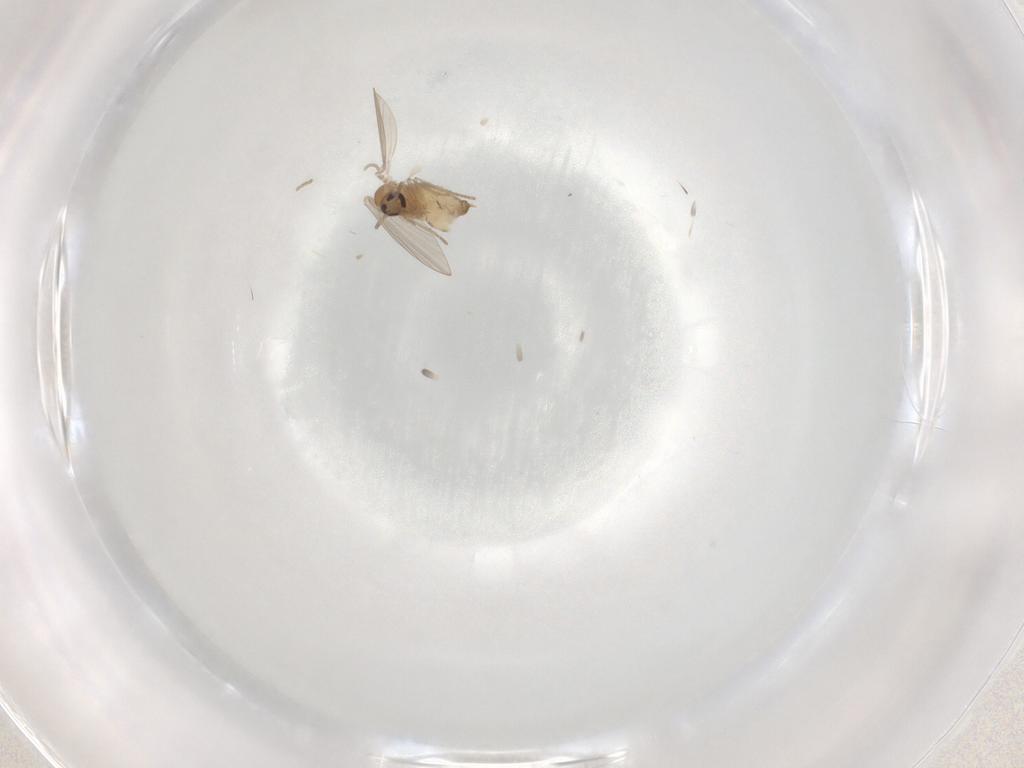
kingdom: Animalia
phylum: Arthropoda
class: Insecta
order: Diptera
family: Psychodidae
